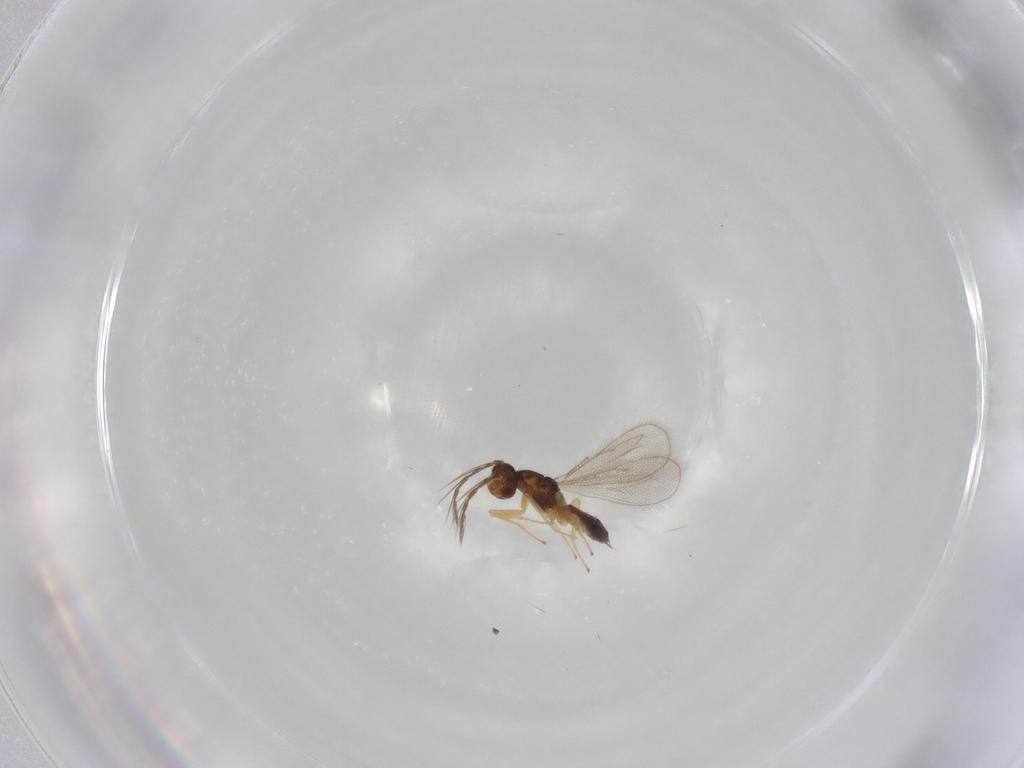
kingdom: Animalia
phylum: Arthropoda
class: Insecta
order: Hymenoptera
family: Eulophidae
